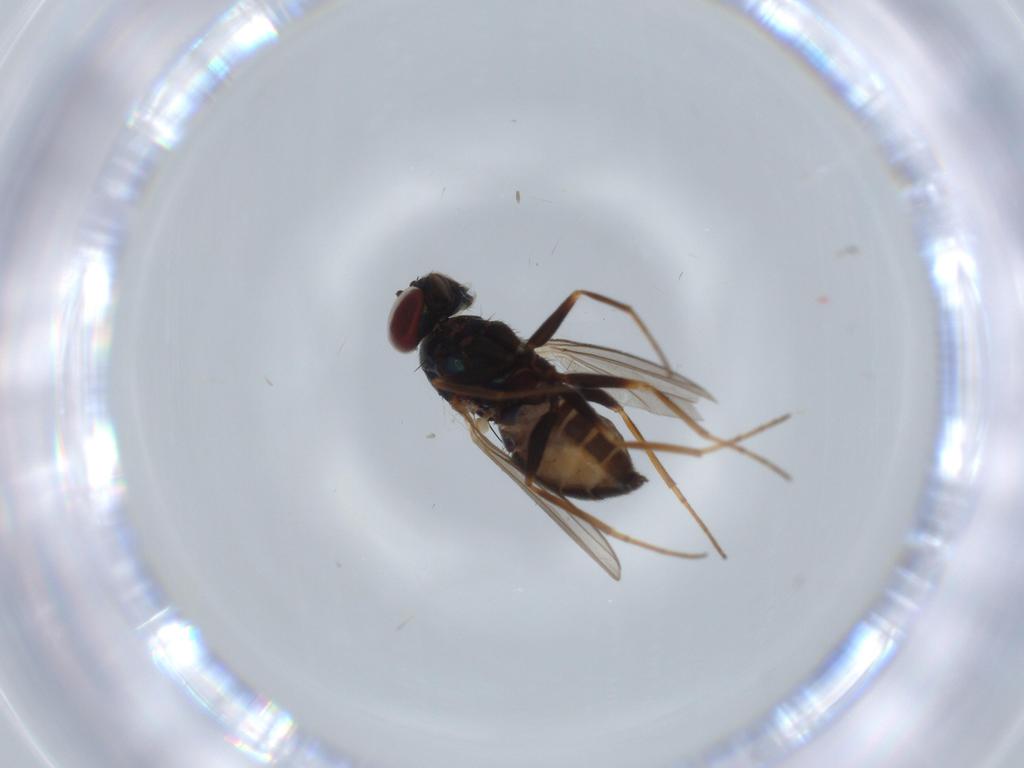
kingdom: Animalia
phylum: Arthropoda
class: Insecta
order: Diptera
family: Dolichopodidae
